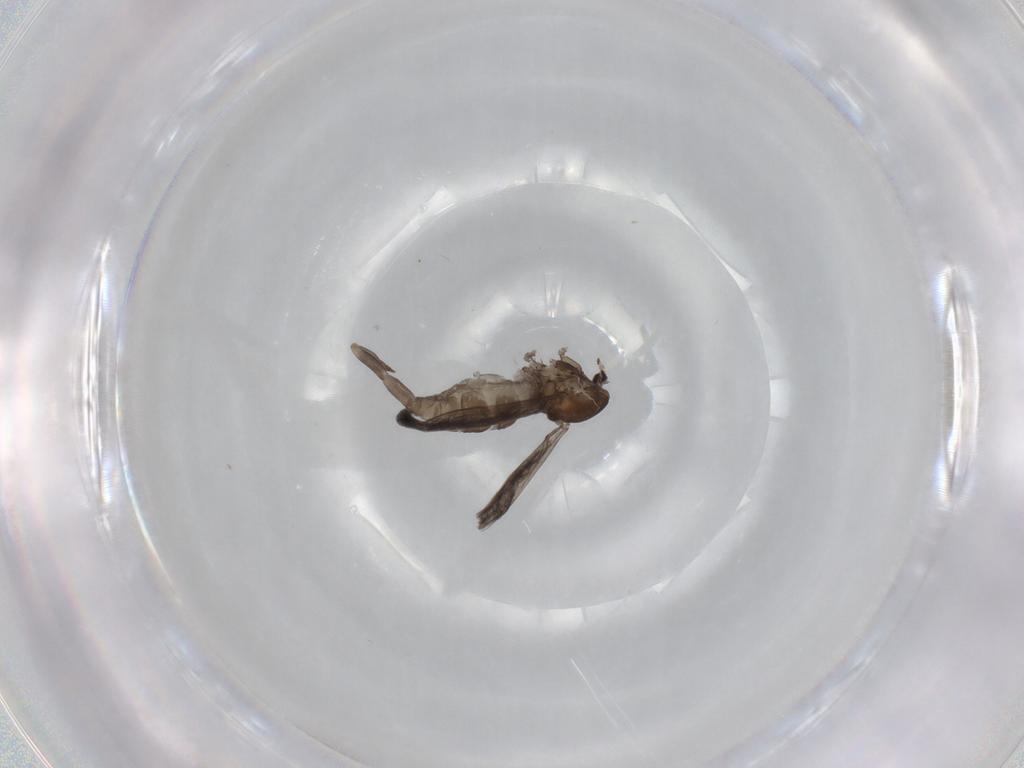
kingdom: Animalia
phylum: Arthropoda
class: Insecta
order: Diptera
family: Cecidomyiidae
